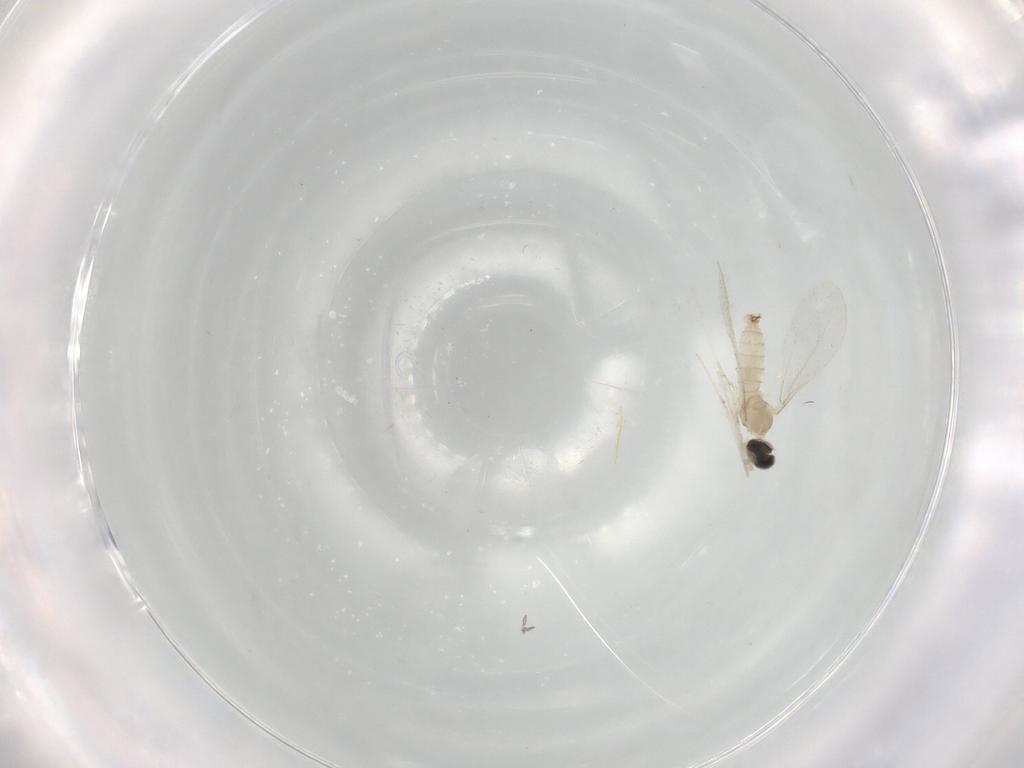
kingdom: Animalia
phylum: Arthropoda
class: Insecta
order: Diptera
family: Cecidomyiidae
